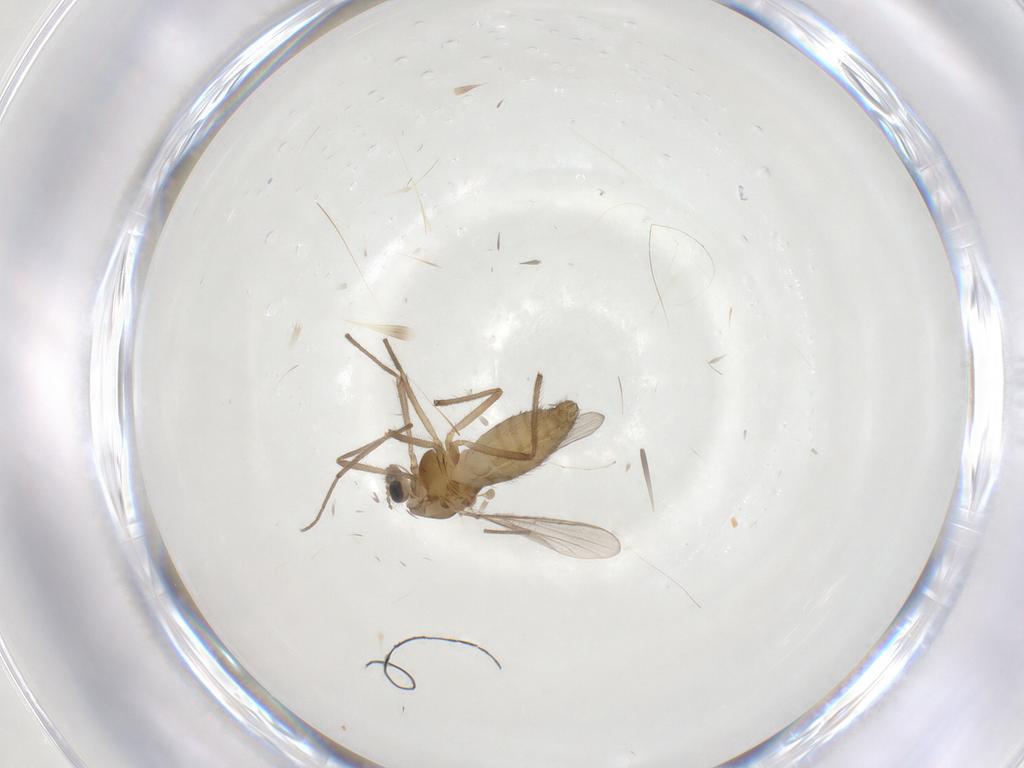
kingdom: Animalia
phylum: Arthropoda
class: Insecta
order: Diptera
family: Chironomidae
